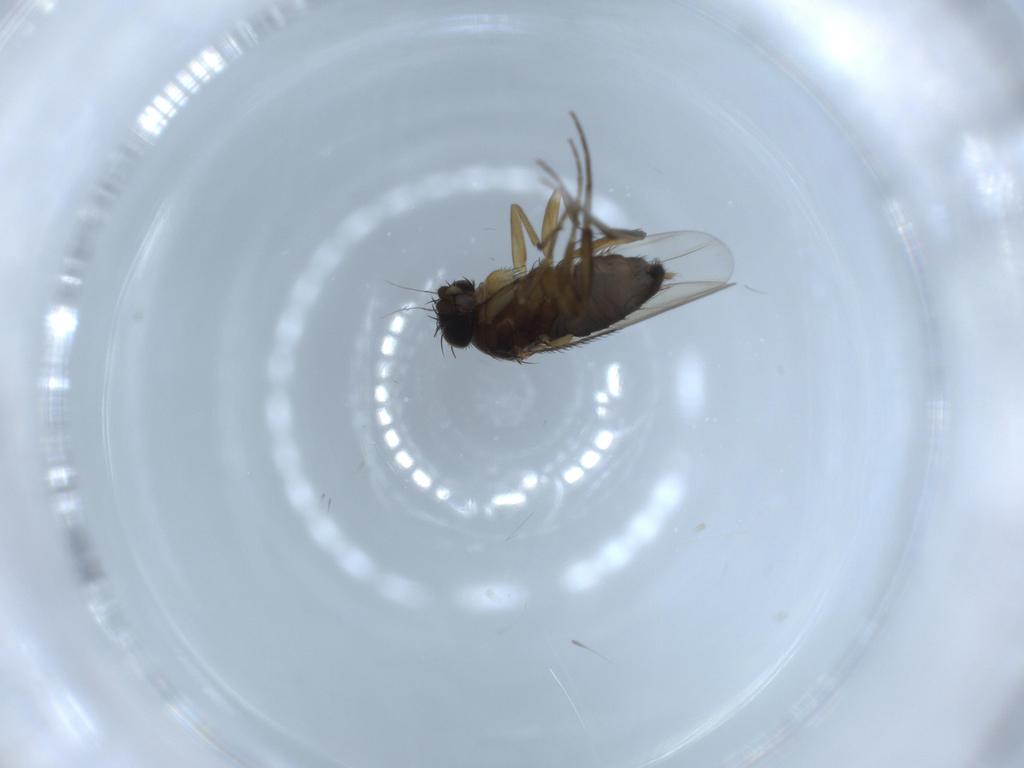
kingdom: Animalia
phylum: Arthropoda
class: Insecta
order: Diptera
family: Phoridae
